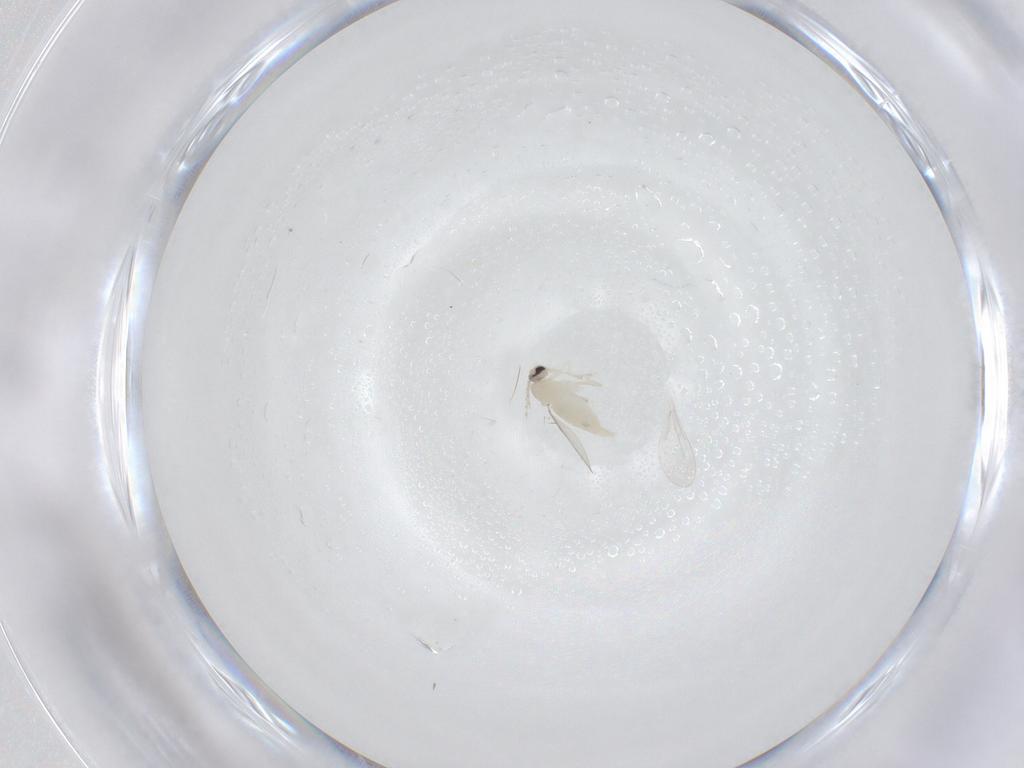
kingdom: Animalia
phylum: Arthropoda
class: Insecta
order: Diptera
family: Cecidomyiidae
